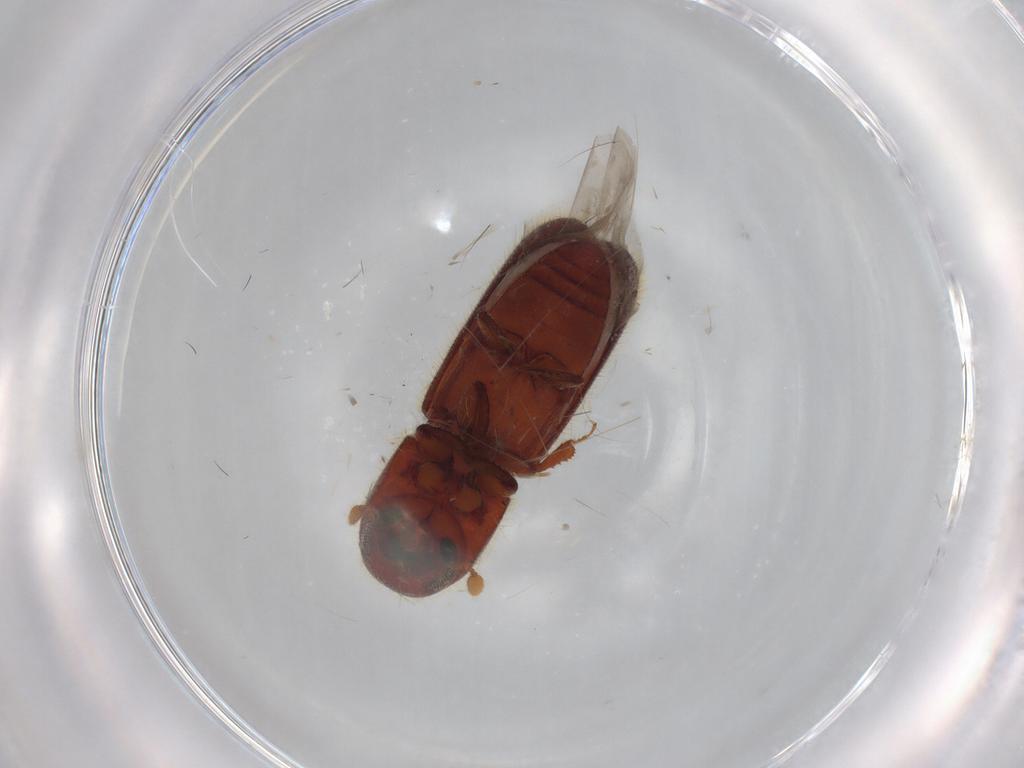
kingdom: Animalia
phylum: Arthropoda
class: Insecta
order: Coleoptera
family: Curculionidae
